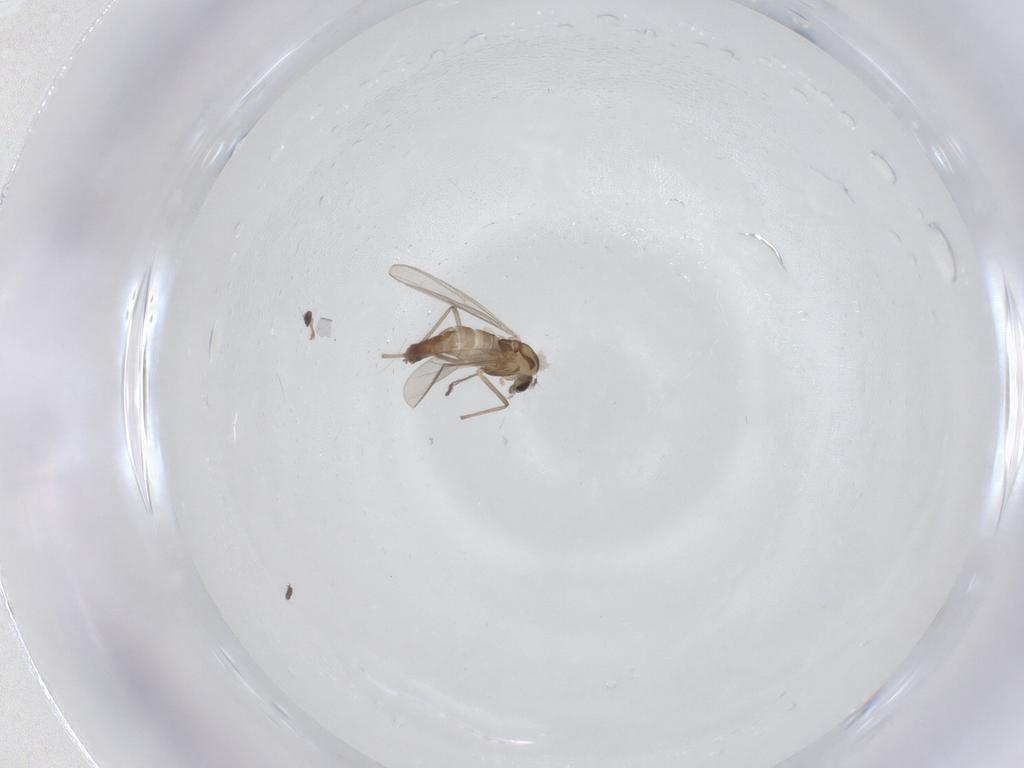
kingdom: Animalia
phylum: Arthropoda
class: Insecta
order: Diptera
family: Chironomidae
